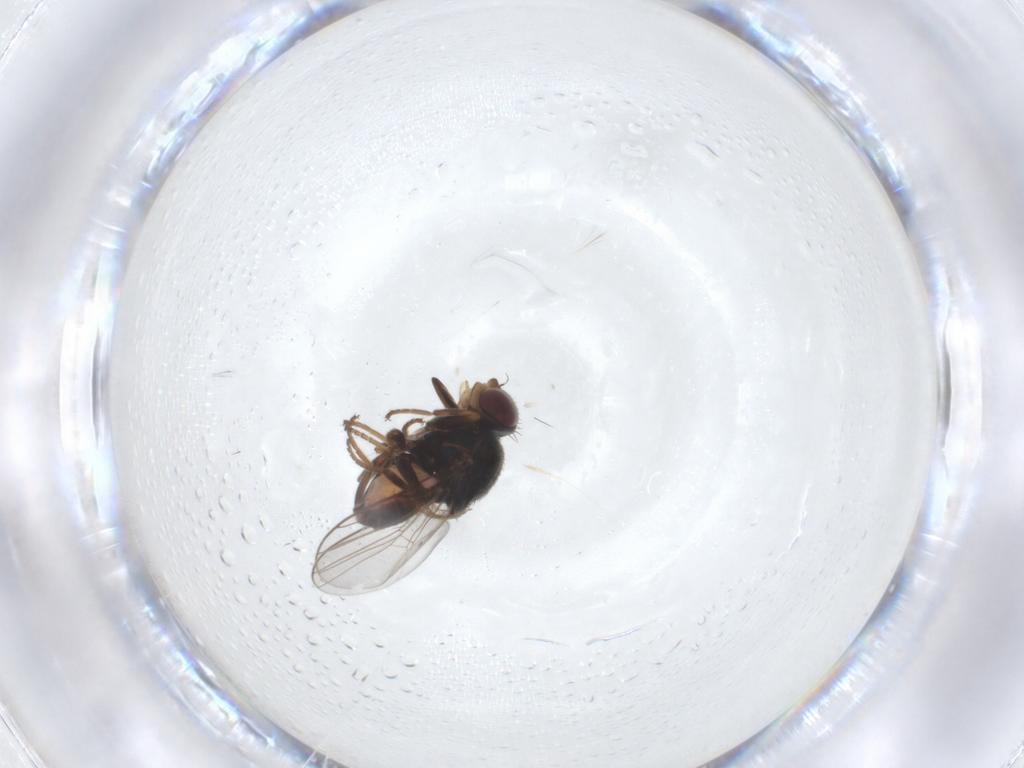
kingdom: Animalia
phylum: Arthropoda
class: Insecta
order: Diptera
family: Chloropidae
